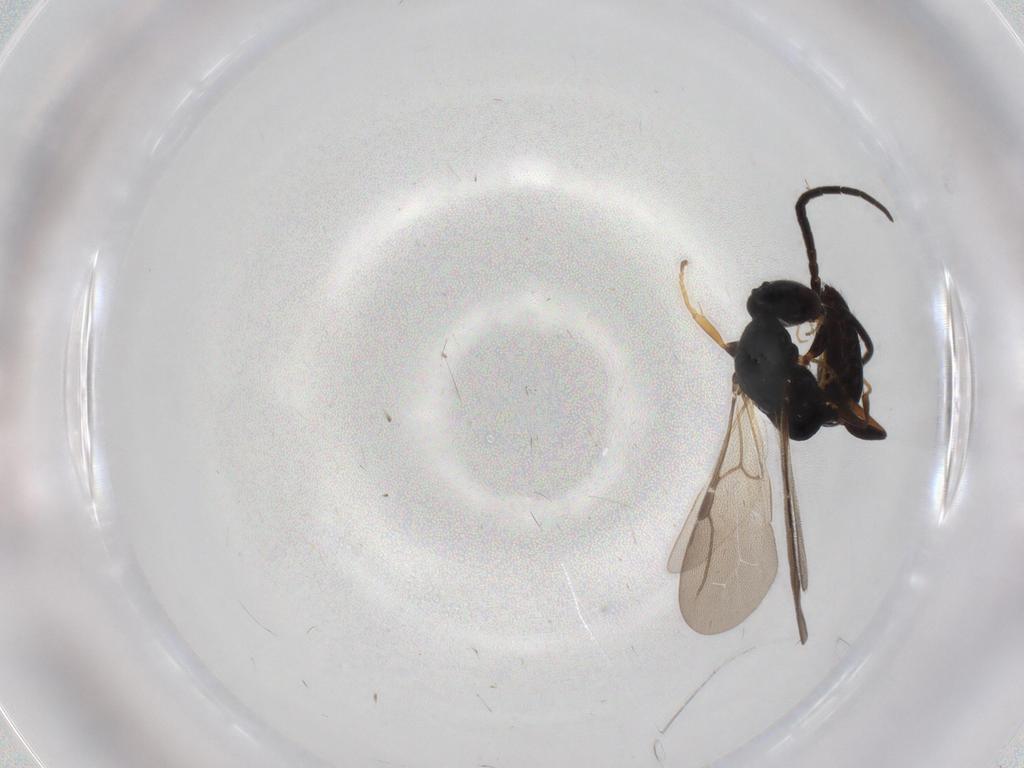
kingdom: Animalia
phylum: Arthropoda
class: Insecta
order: Hymenoptera
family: Bethylidae
